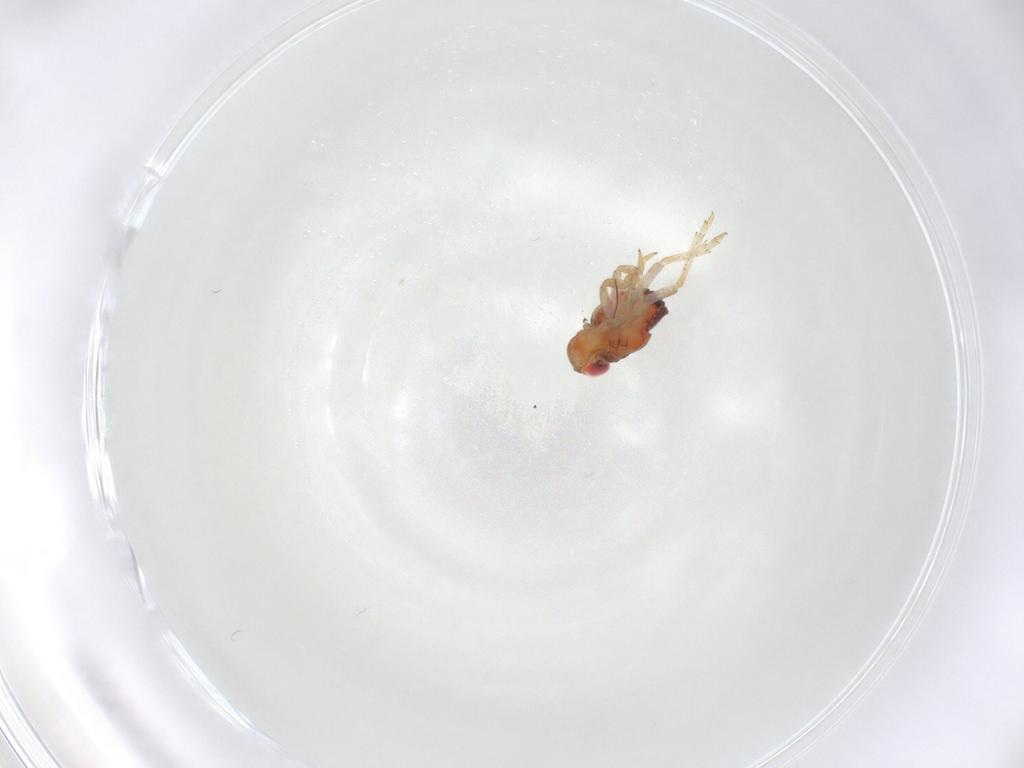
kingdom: Animalia
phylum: Arthropoda
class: Insecta
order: Hemiptera
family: Issidae
